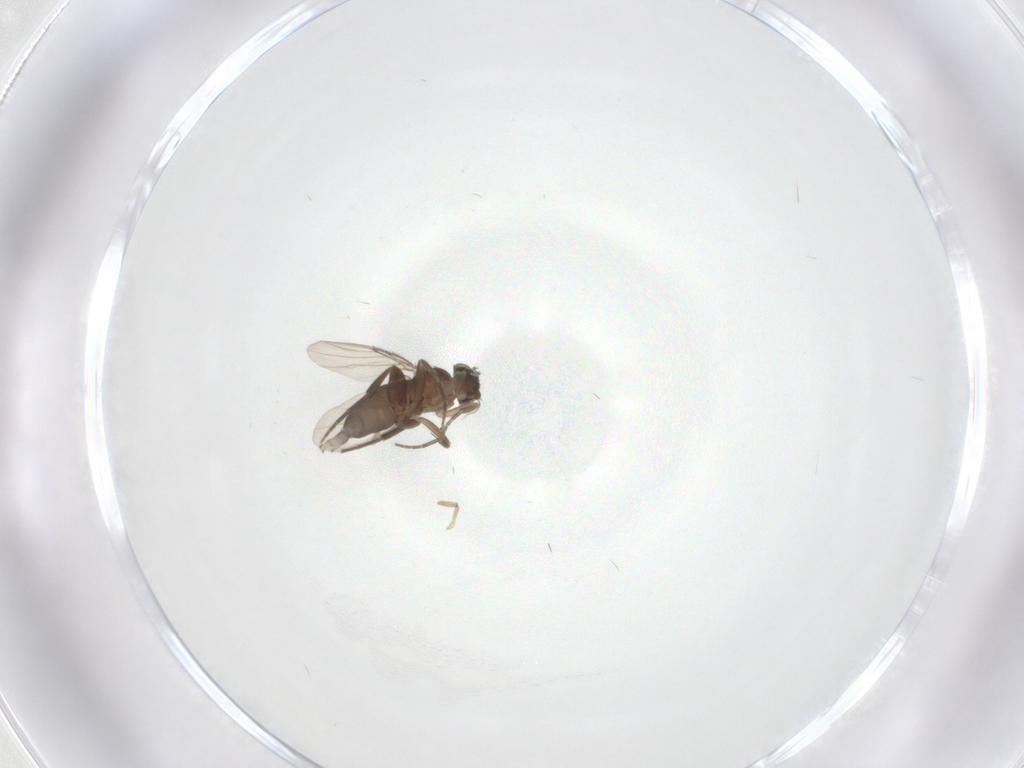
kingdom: Animalia
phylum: Arthropoda
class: Insecta
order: Diptera
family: Phoridae
